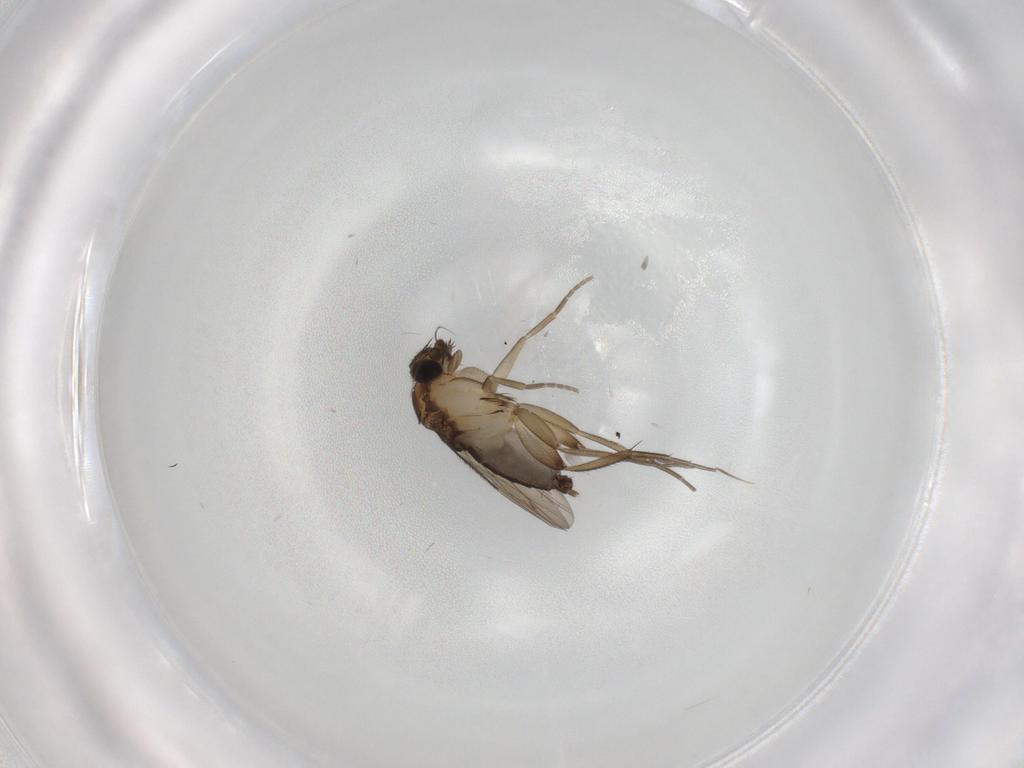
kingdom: Animalia
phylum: Arthropoda
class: Insecta
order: Diptera
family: Phoridae
